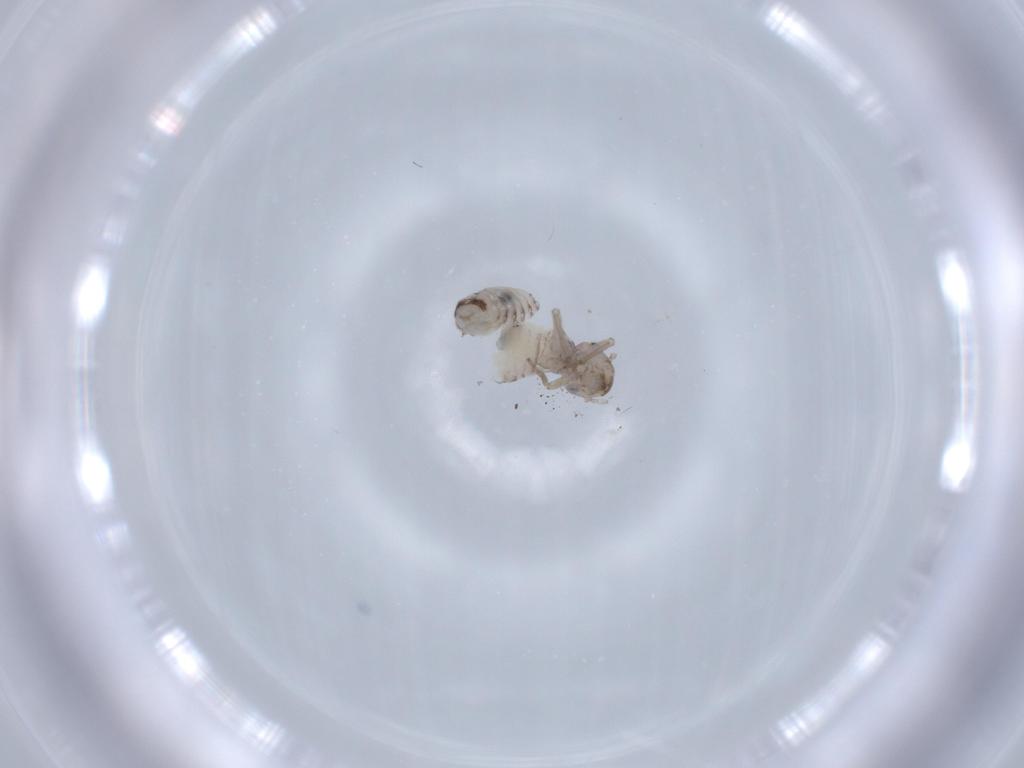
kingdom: Animalia
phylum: Arthropoda
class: Insecta
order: Psocodea
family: Peripsocidae
